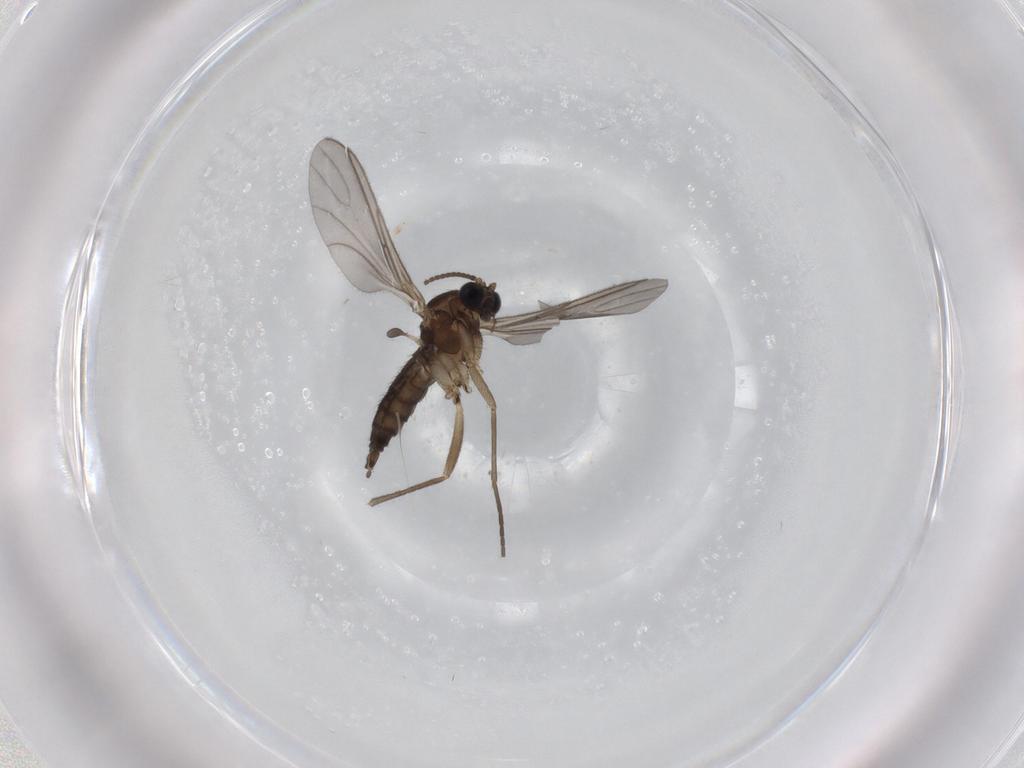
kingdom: Animalia
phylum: Arthropoda
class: Insecta
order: Diptera
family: Sciaridae
